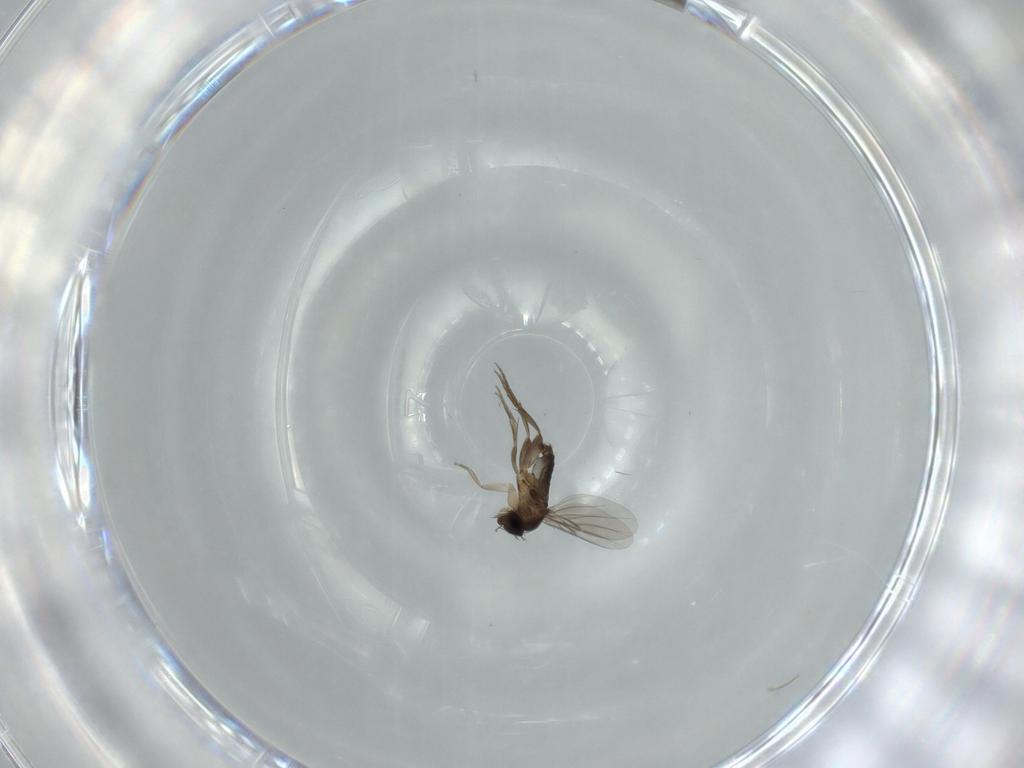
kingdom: Animalia
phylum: Arthropoda
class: Insecta
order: Diptera
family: Phoridae
